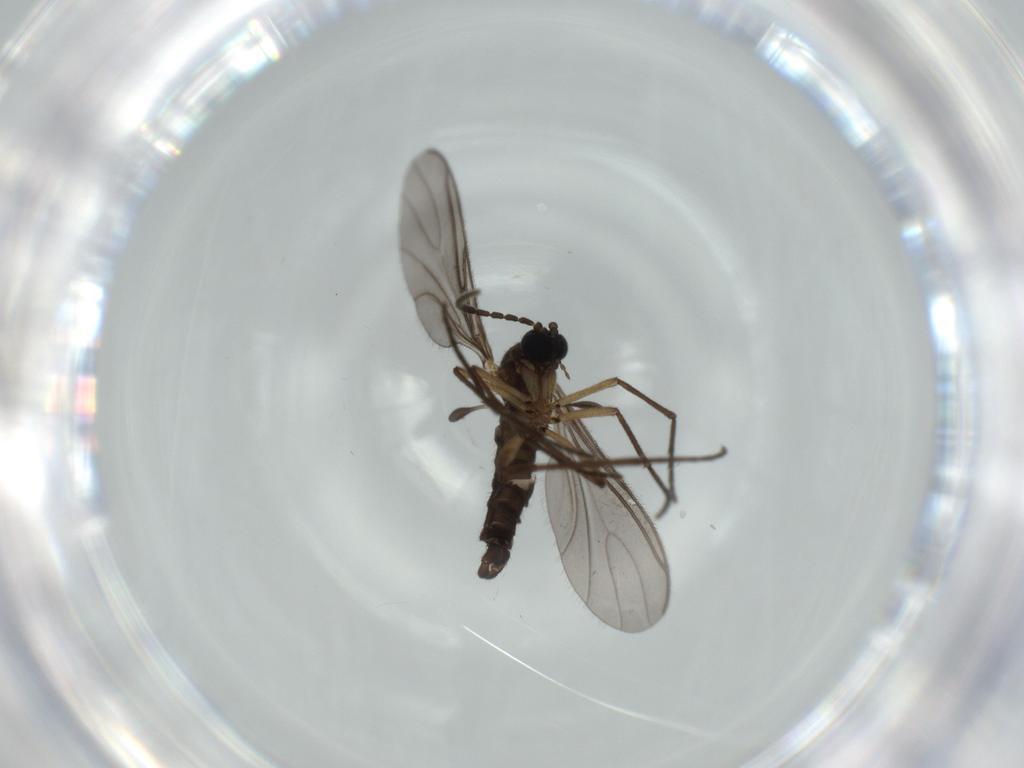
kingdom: Animalia
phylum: Arthropoda
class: Insecta
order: Diptera
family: Sciaridae
